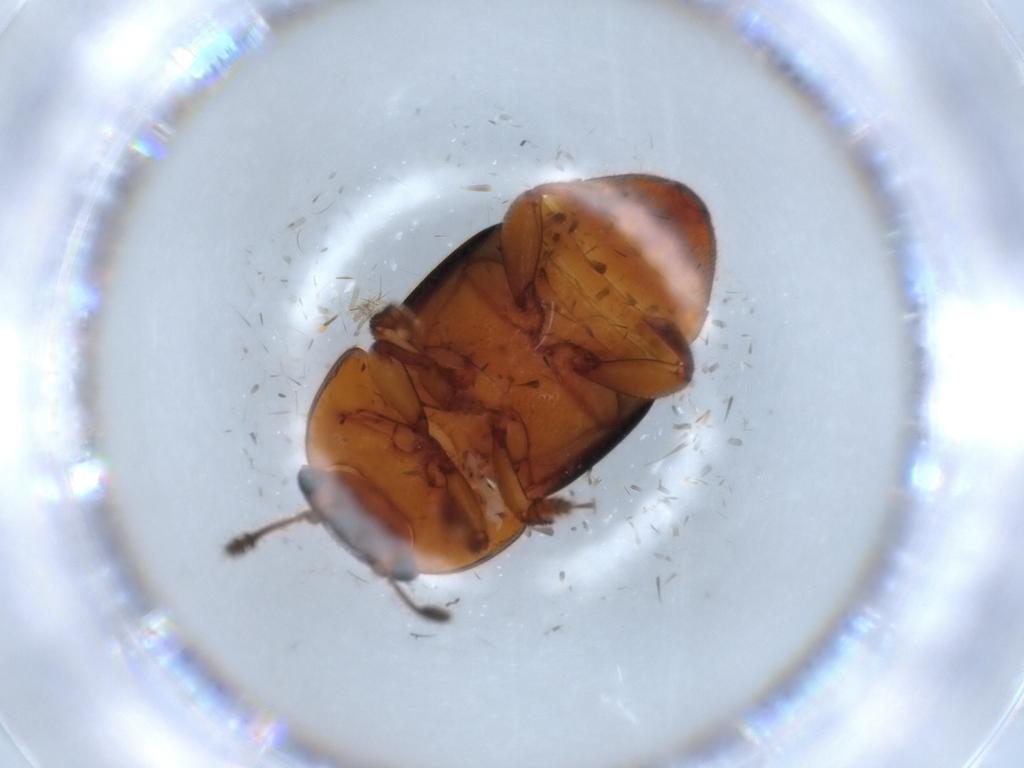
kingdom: Animalia
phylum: Arthropoda
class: Insecta
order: Coleoptera
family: Nitidulidae
